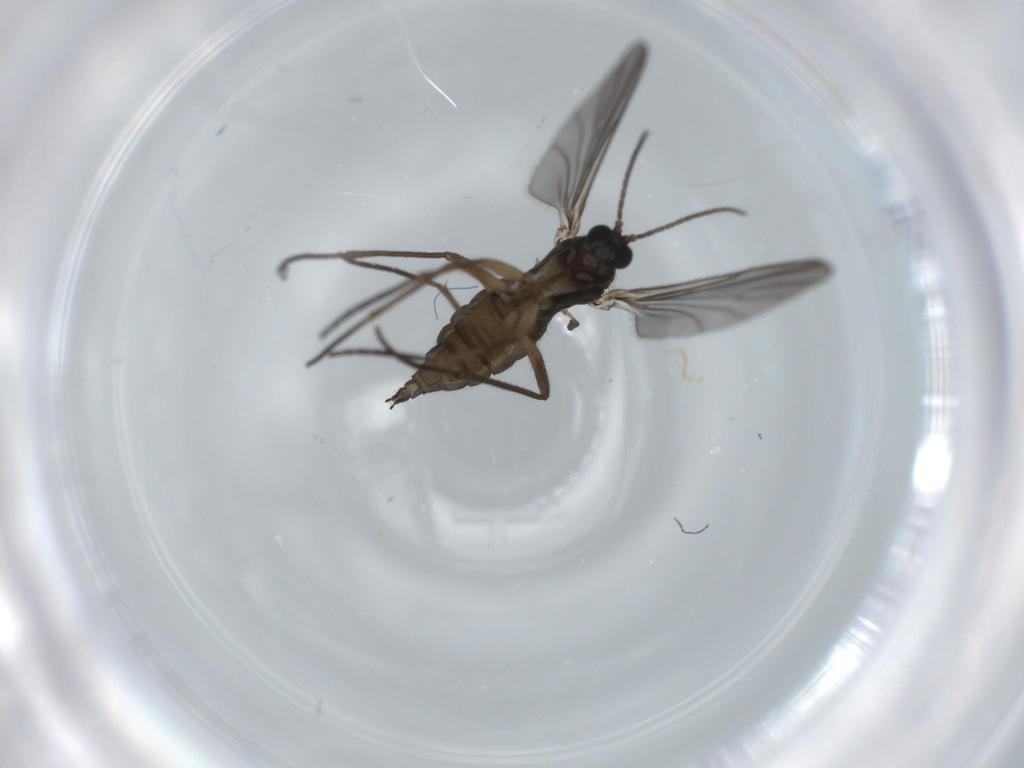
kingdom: Animalia
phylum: Arthropoda
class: Insecta
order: Diptera
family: Sciaridae
